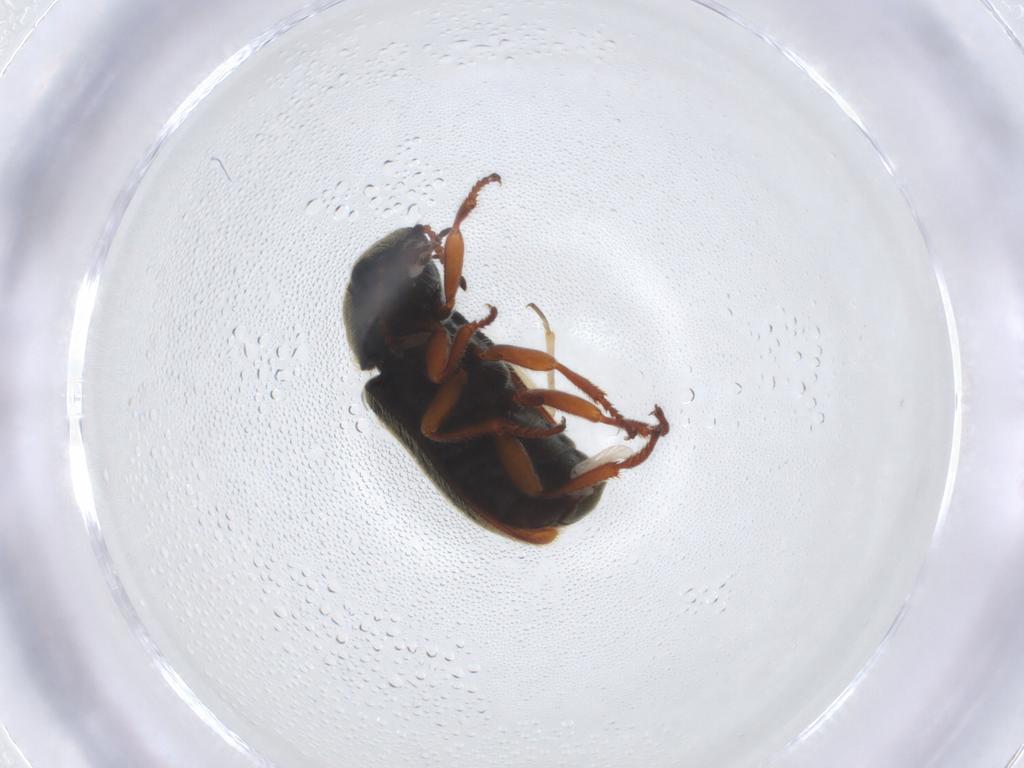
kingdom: Animalia
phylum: Arthropoda
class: Insecta
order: Coleoptera
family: Melyridae
